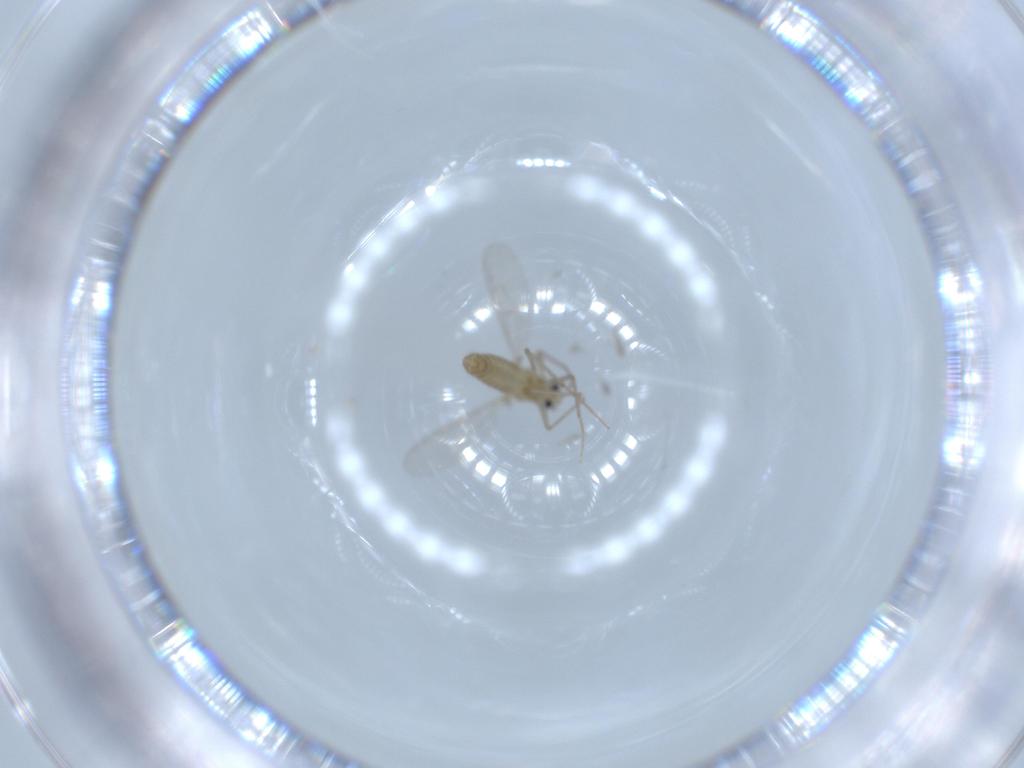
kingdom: Animalia
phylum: Arthropoda
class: Insecta
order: Diptera
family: Chironomidae
